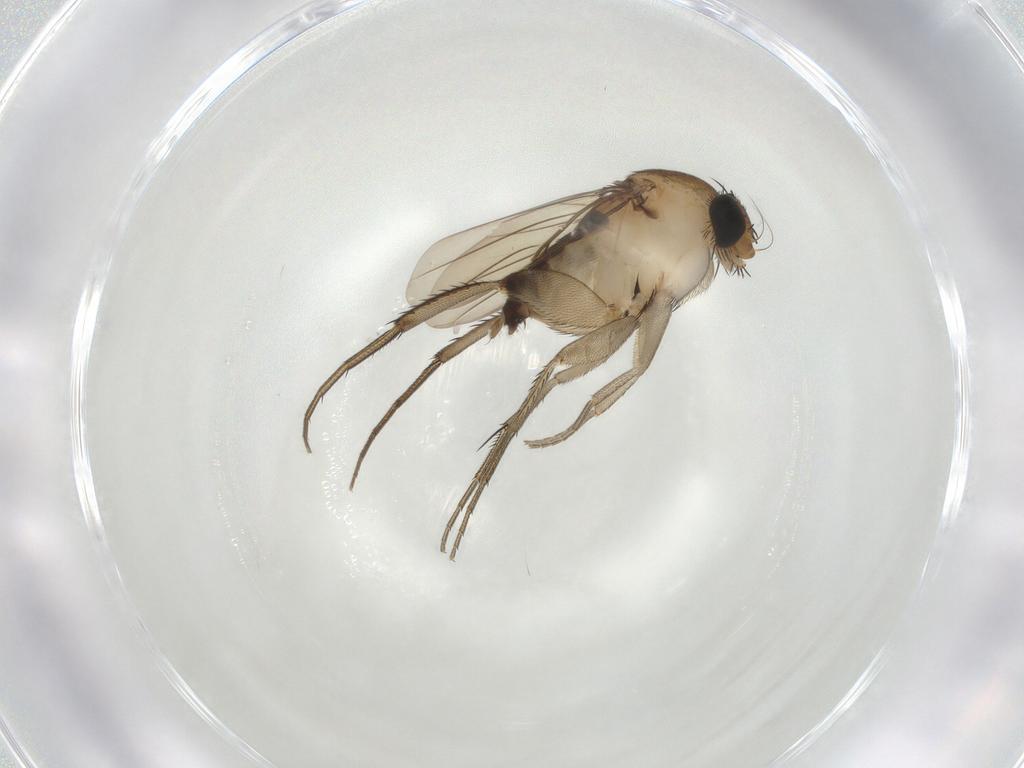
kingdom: Animalia
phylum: Arthropoda
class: Insecta
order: Diptera
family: Phoridae
